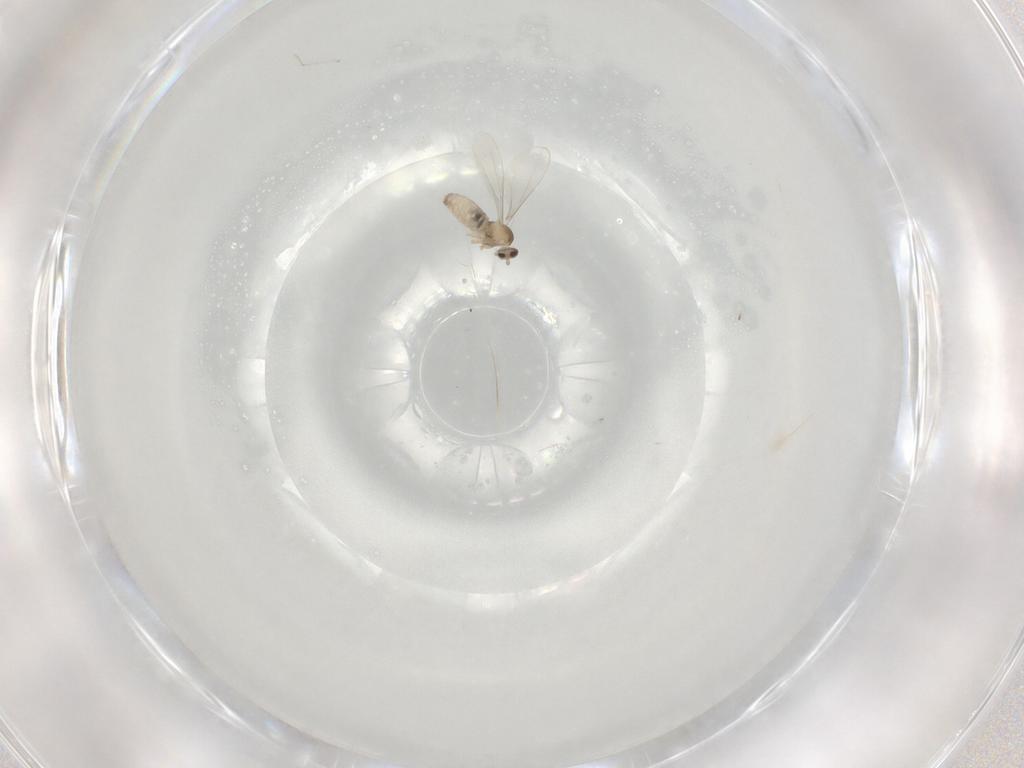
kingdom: Animalia
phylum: Arthropoda
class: Insecta
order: Diptera
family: Cecidomyiidae
